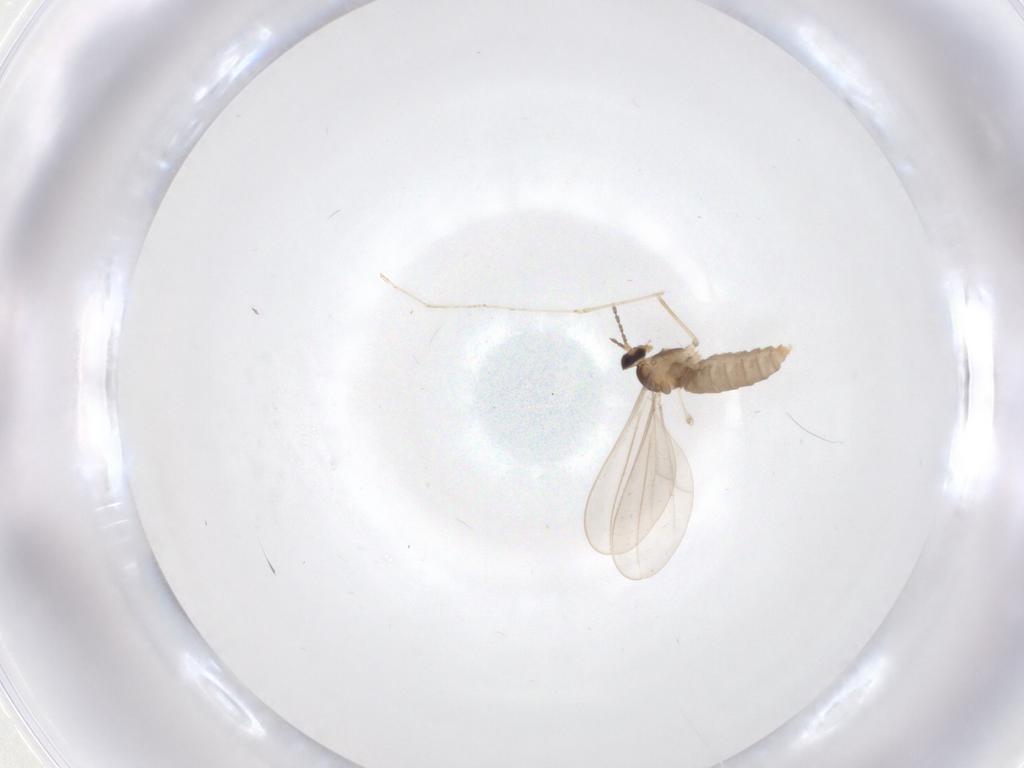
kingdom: Animalia
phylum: Arthropoda
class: Insecta
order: Diptera
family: Cecidomyiidae
